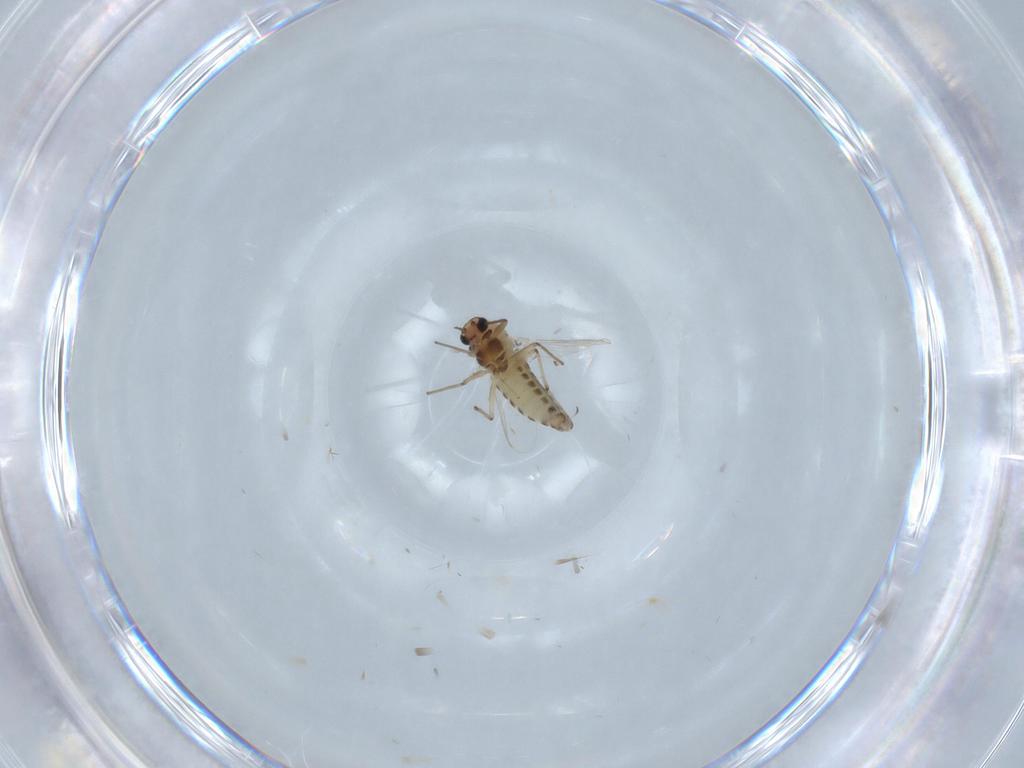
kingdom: Animalia
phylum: Arthropoda
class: Insecta
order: Diptera
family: Chironomidae
